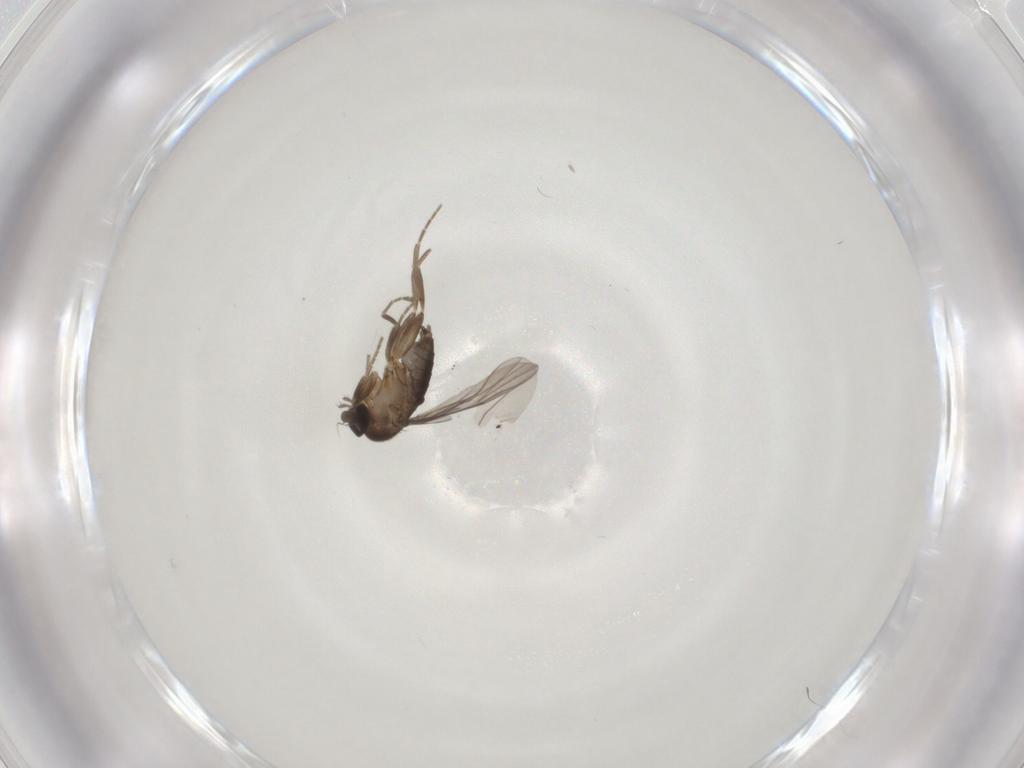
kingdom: Animalia
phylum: Arthropoda
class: Insecta
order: Diptera
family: Phoridae
